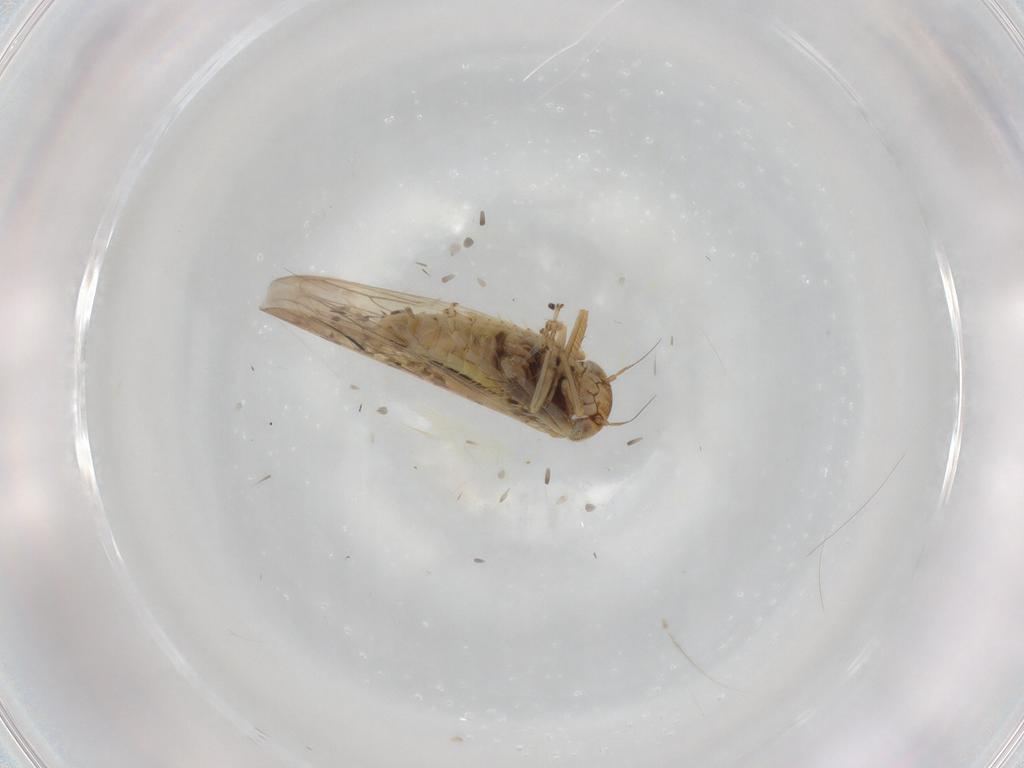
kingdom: Animalia
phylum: Arthropoda
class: Insecta
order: Hemiptera
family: Cicadellidae
